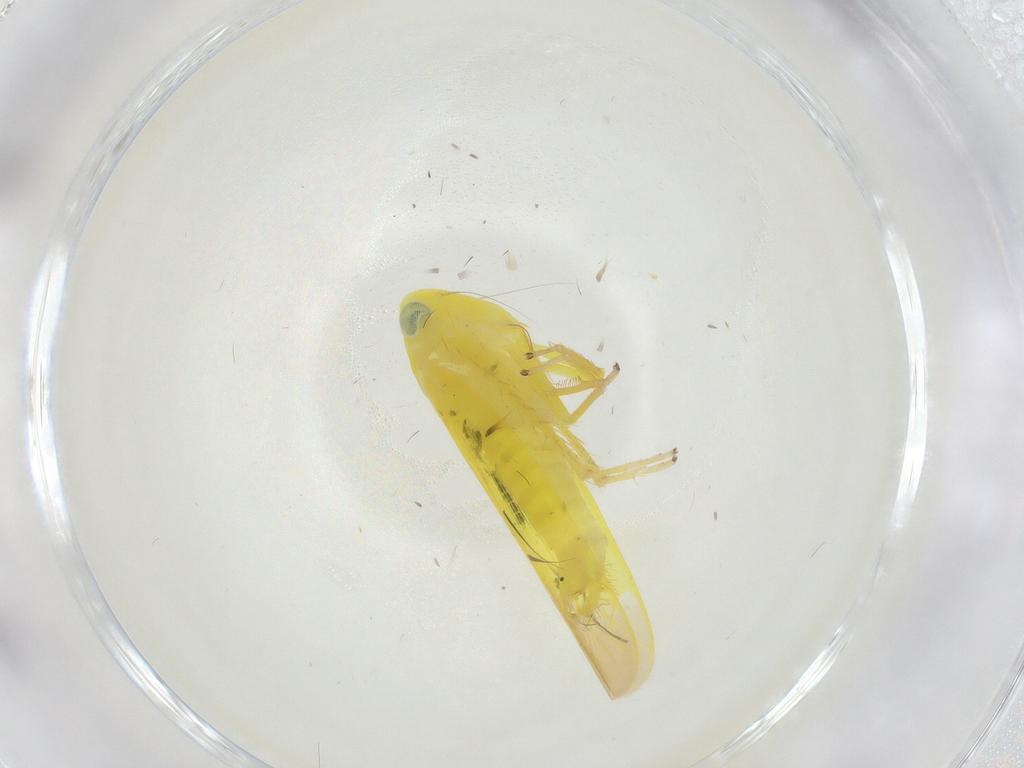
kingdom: Animalia
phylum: Arthropoda
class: Insecta
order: Hemiptera
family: Cicadellidae
